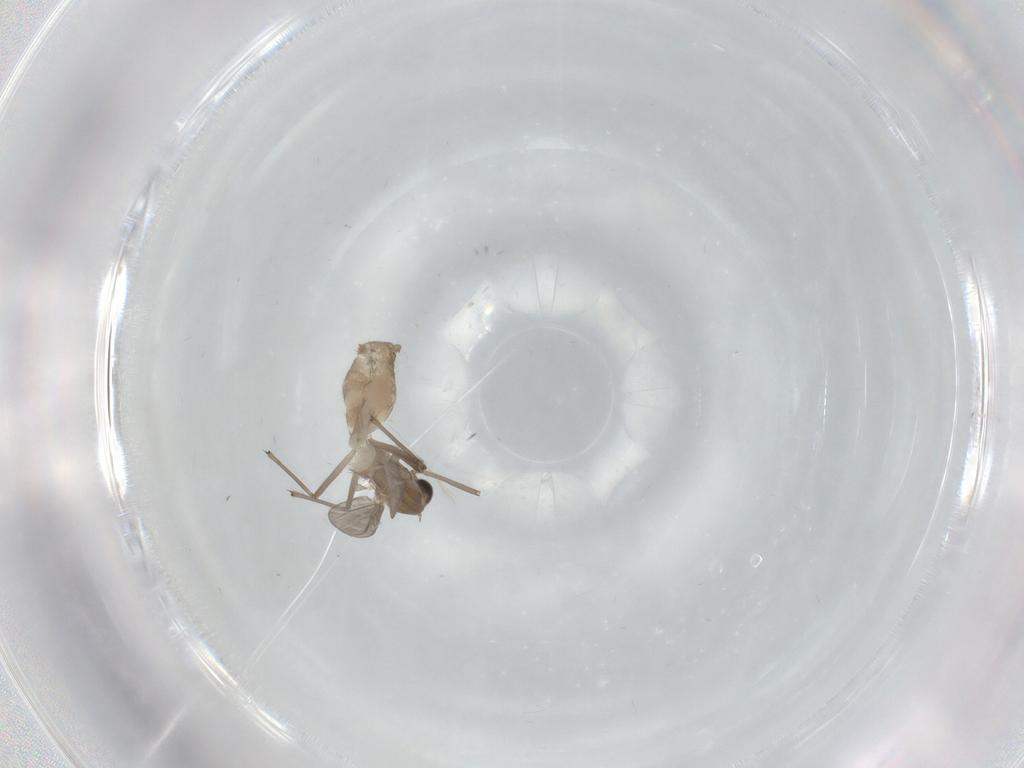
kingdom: Animalia
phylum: Arthropoda
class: Insecta
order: Diptera
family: Chironomidae
